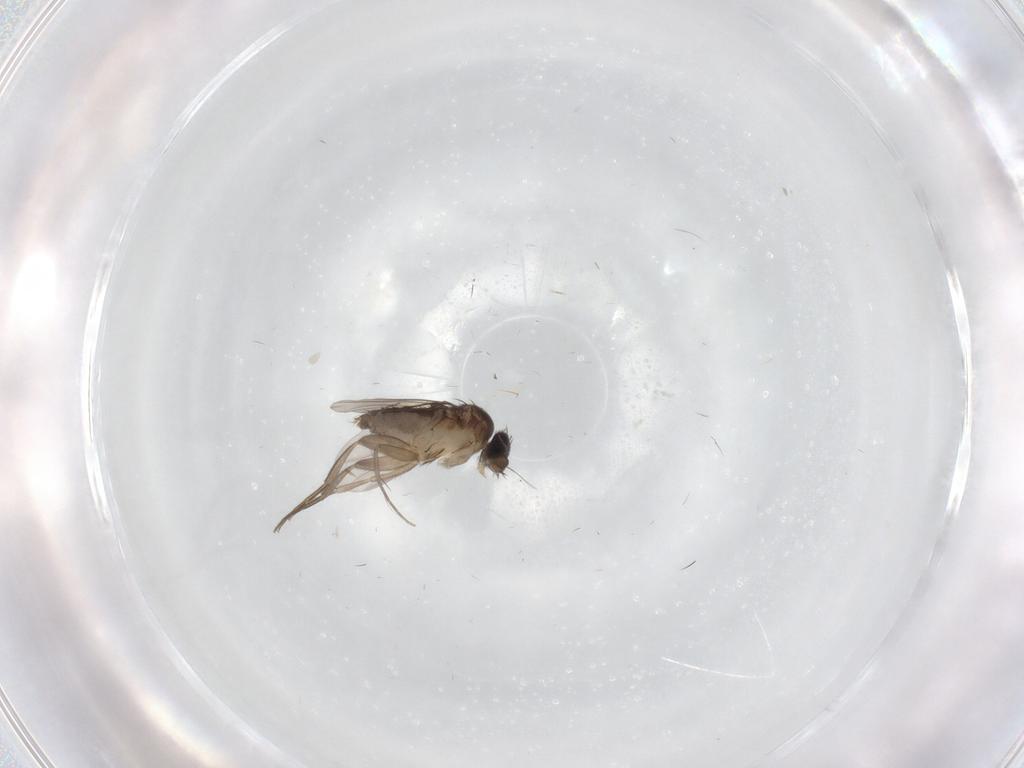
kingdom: Animalia
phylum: Arthropoda
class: Insecta
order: Diptera
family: Phoridae
